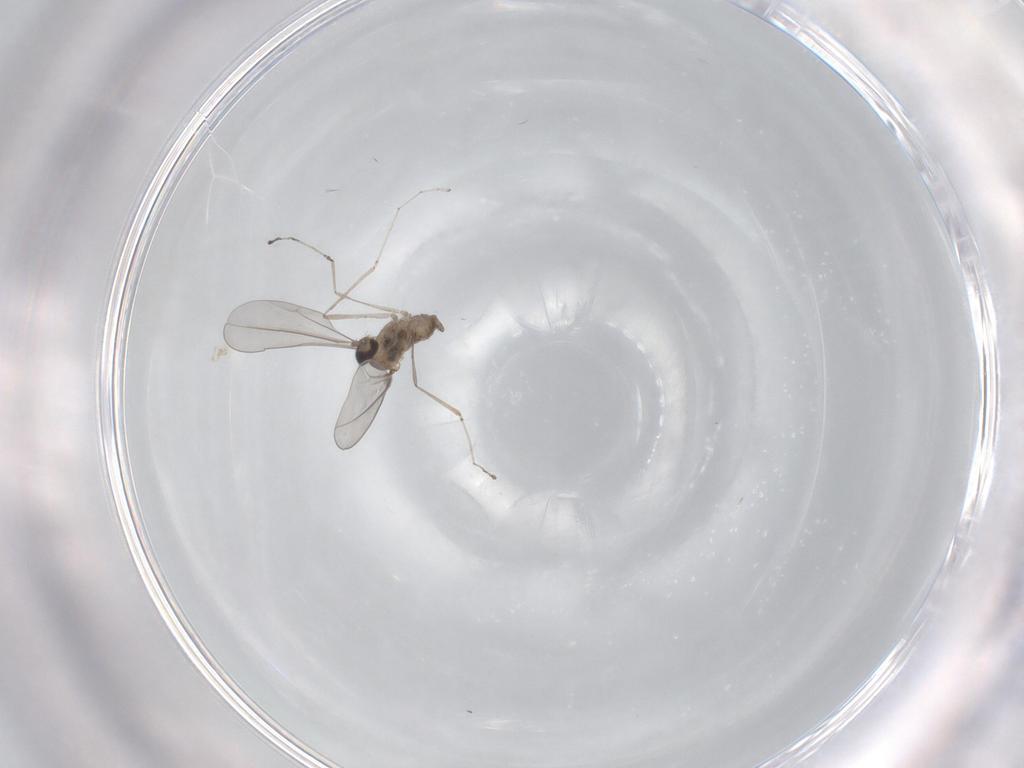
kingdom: Animalia
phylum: Arthropoda
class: Insecta
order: Diptera
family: Cecidomyiidae
